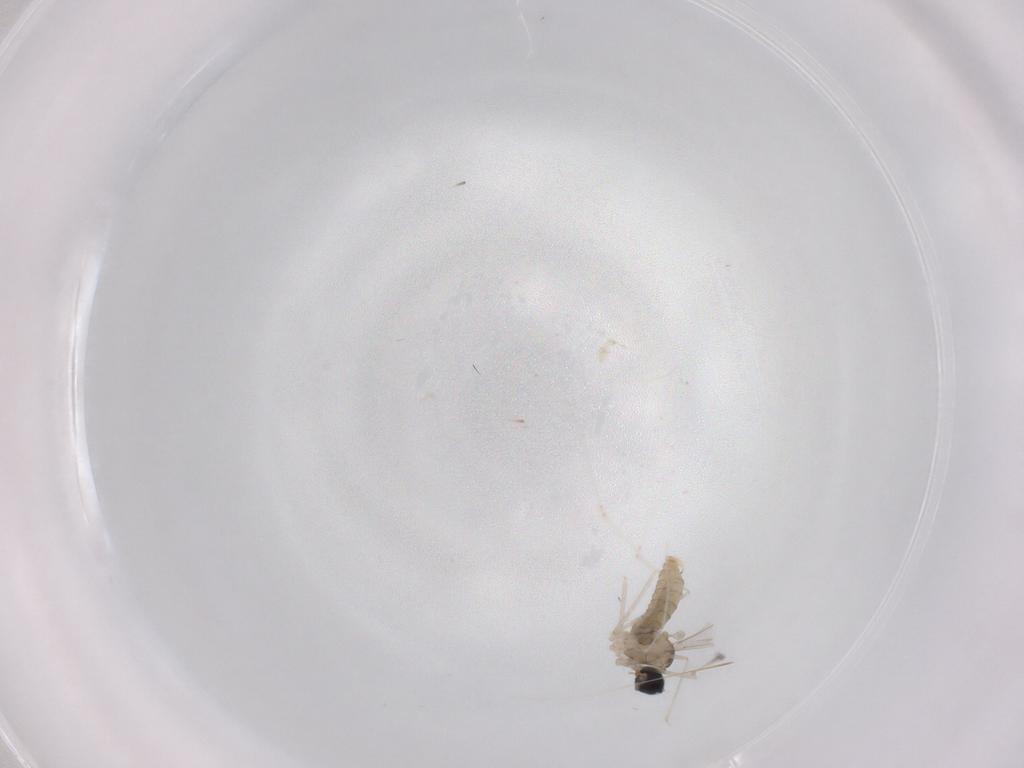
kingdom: Animalia
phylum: Arthropoda
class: Insecta
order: Diptera
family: Cecidomyiidae
